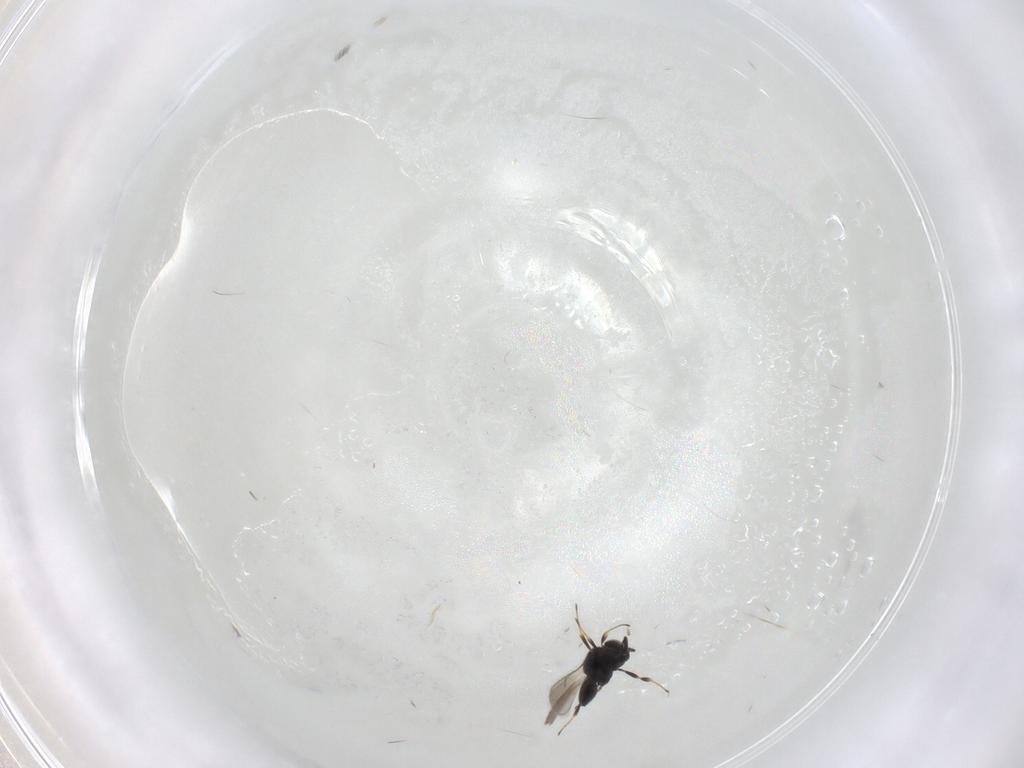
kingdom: Animalia
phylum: Arthropoda
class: Insecta
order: Hymenoptera
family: Scelionidae
